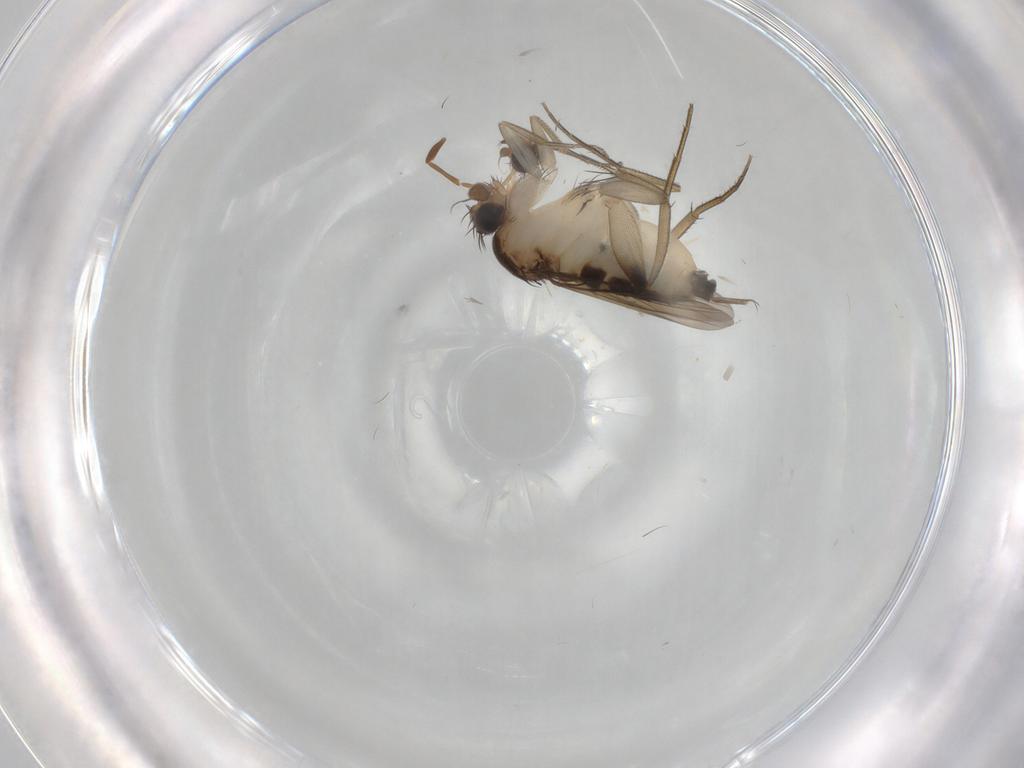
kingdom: Animalia
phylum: Arthropoda
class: Insecta
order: Diptera
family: Phoridae
